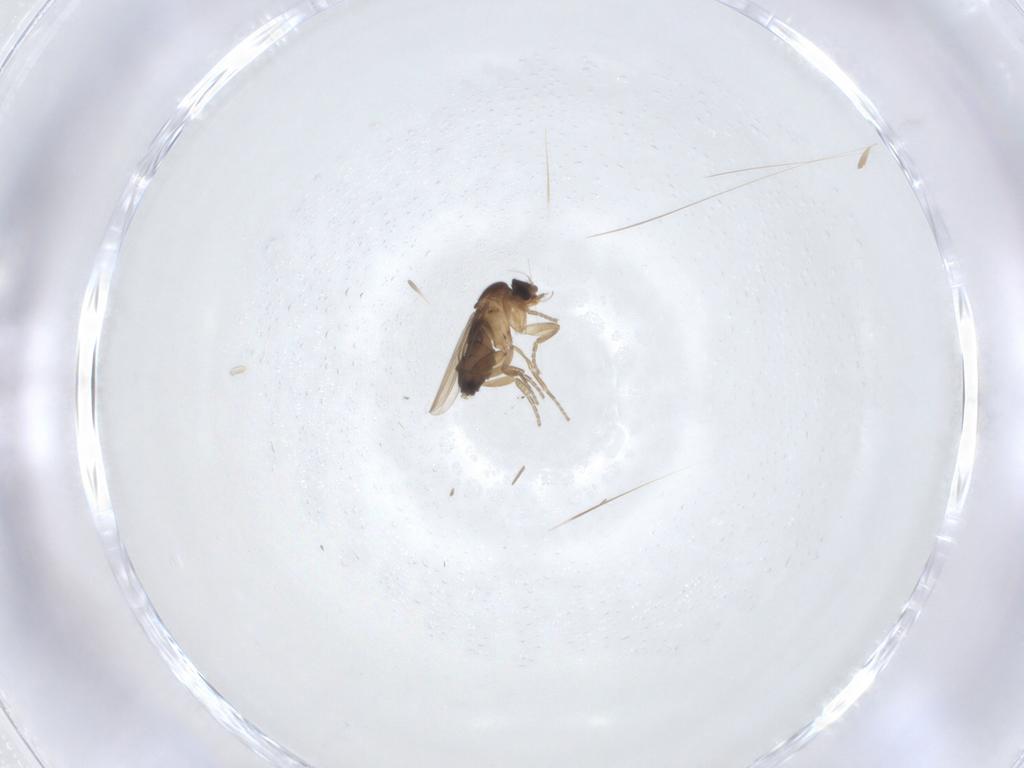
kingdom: Animalia
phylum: Arthropoda
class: Insecta
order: Diptera
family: Phoridae
